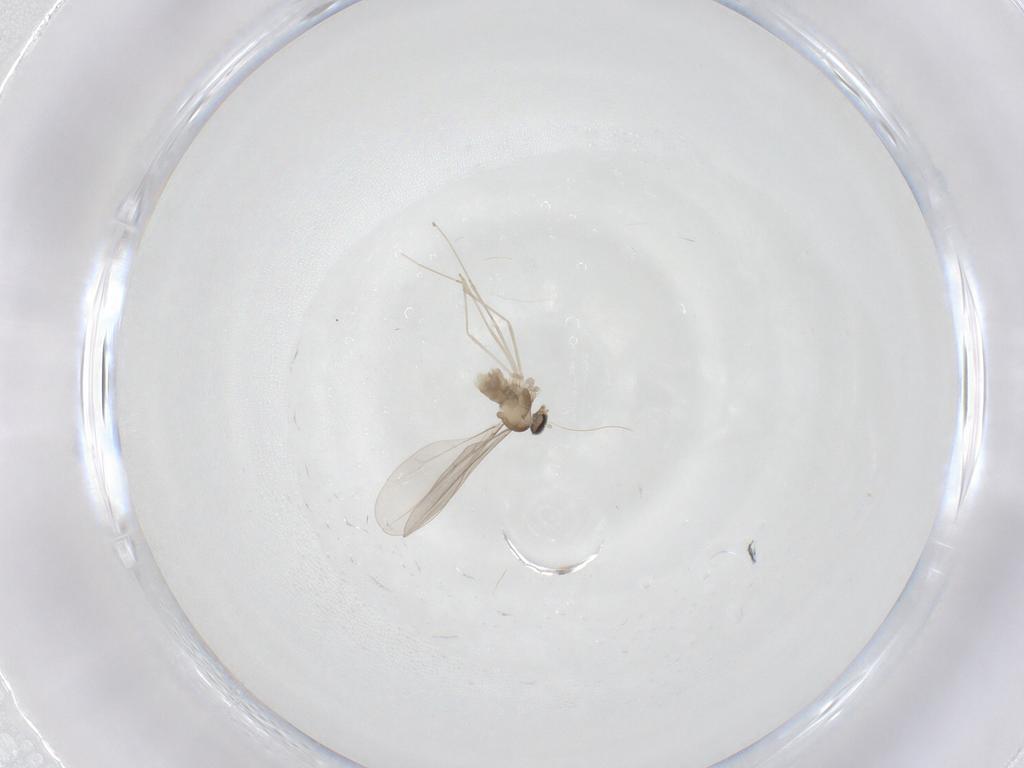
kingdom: Animalia
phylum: Arthropoda
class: Insecta
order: Diptera
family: Cecidomyiidae
